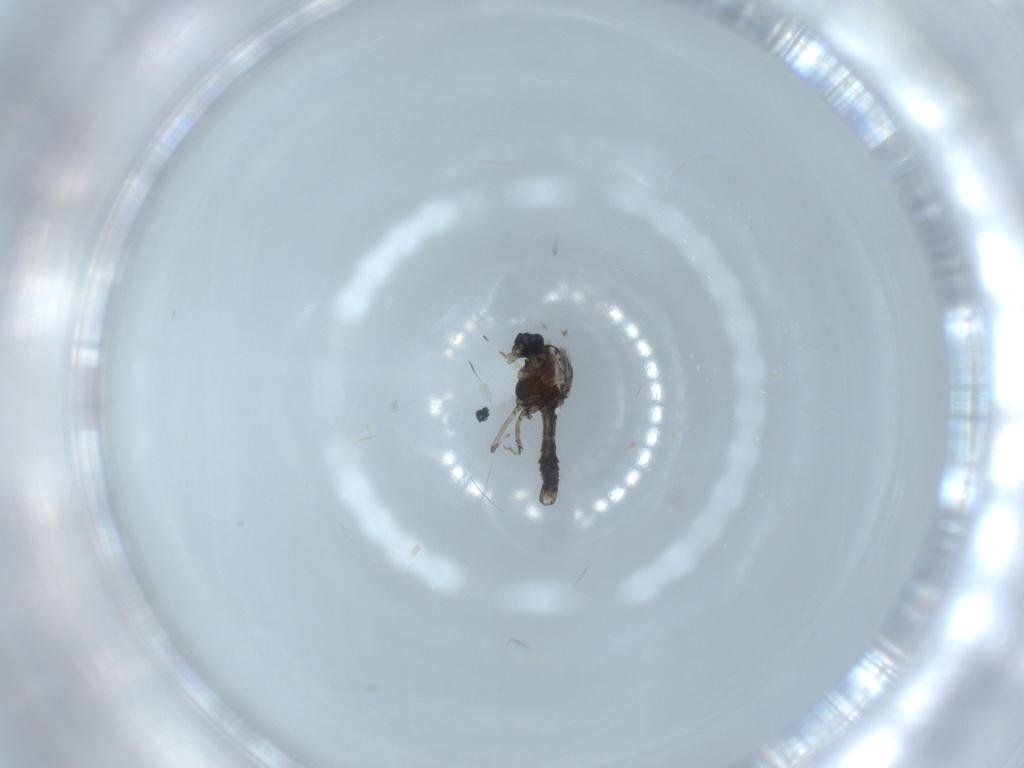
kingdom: Animalia
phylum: Arthropoda
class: Insecta
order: Diptera
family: Ceratopogonidae
